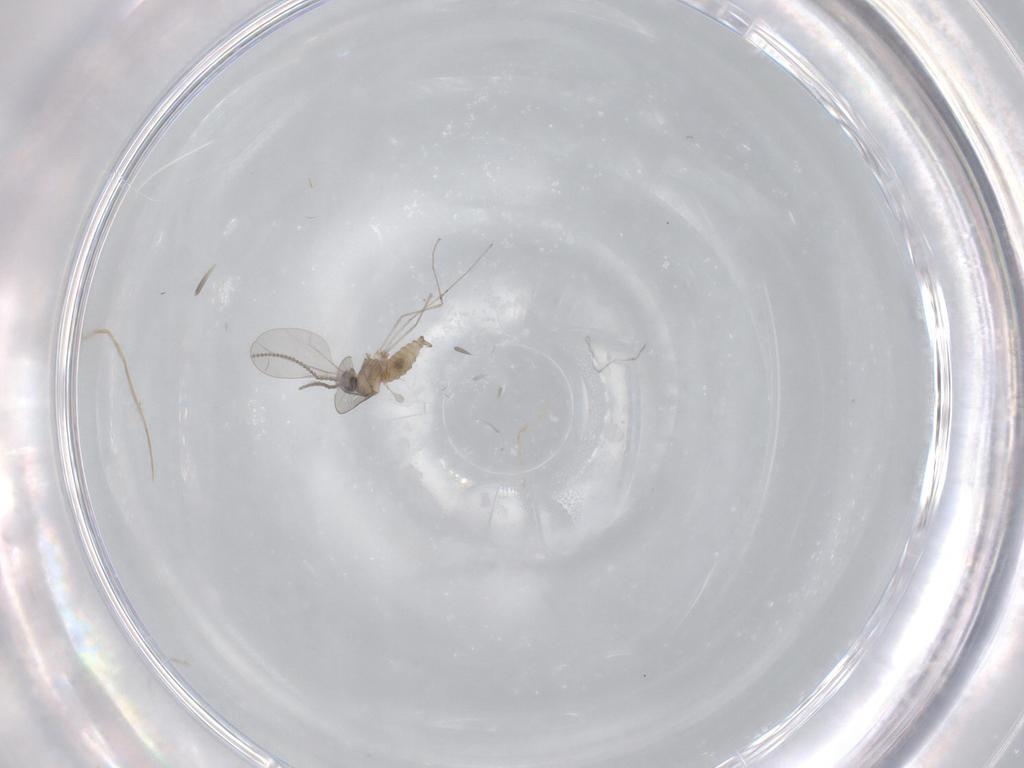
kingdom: Animalia
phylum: Arthropoda
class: Insecta
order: Diptera
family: Cecidomyiidae
